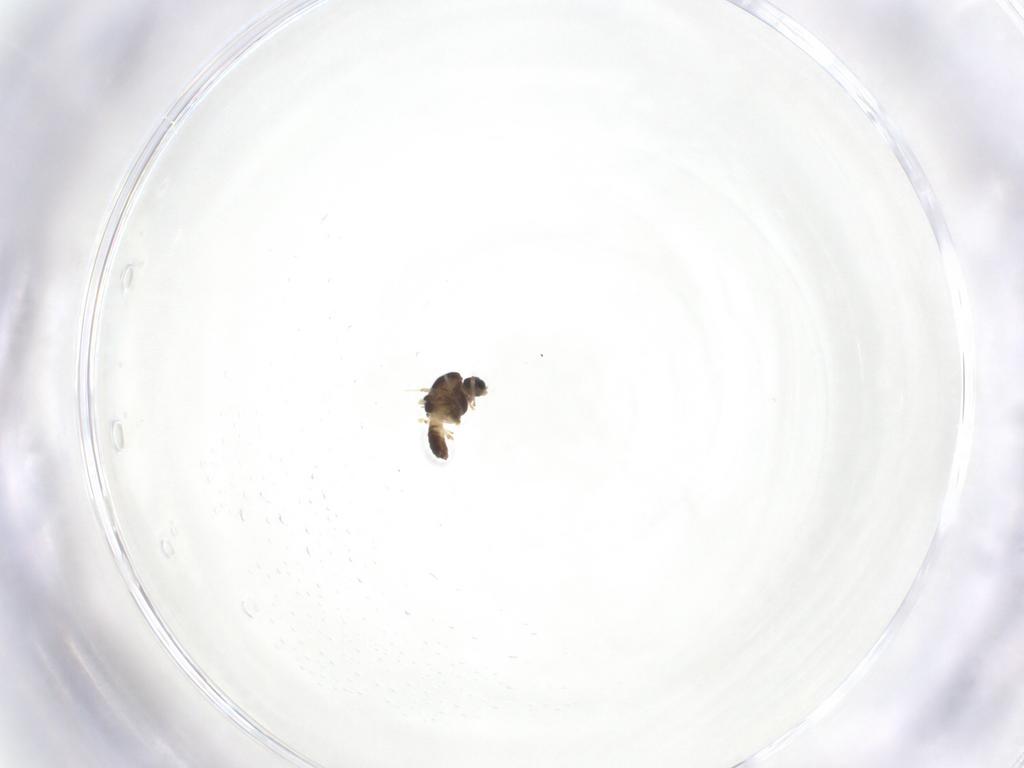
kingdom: Animalia
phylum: Arthropoda
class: Insecta
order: Diptera
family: Chironomidae
